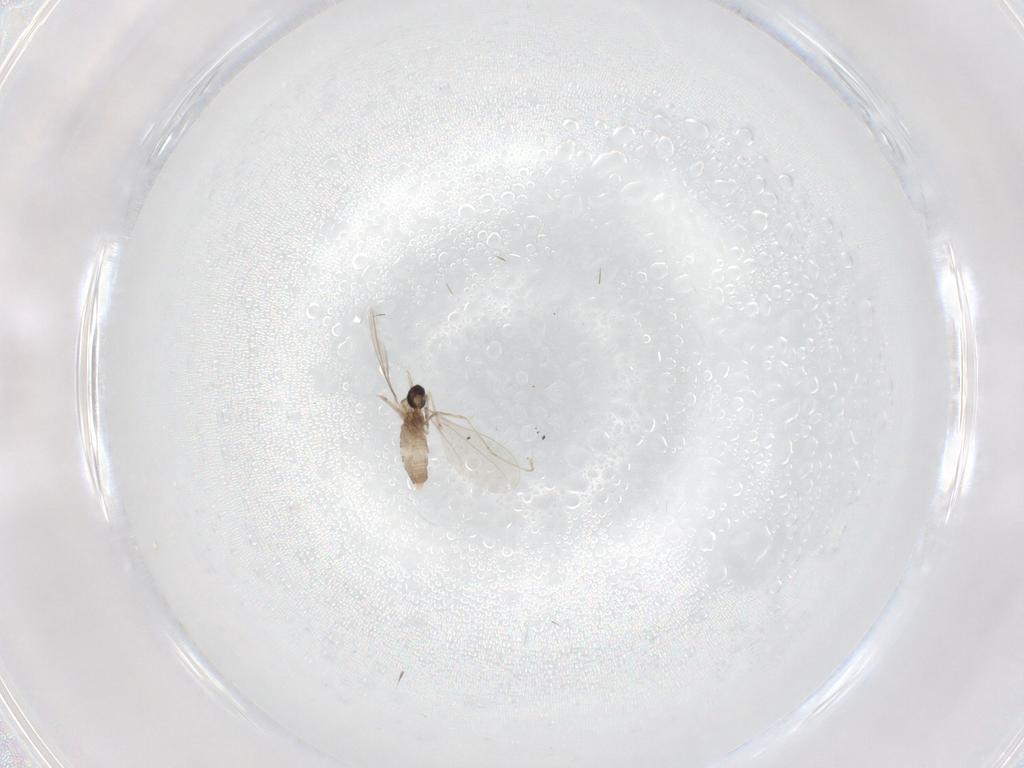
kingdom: Animalia
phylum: Arthropoda
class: Insecta
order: Diptera
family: Cecidomyiidae
